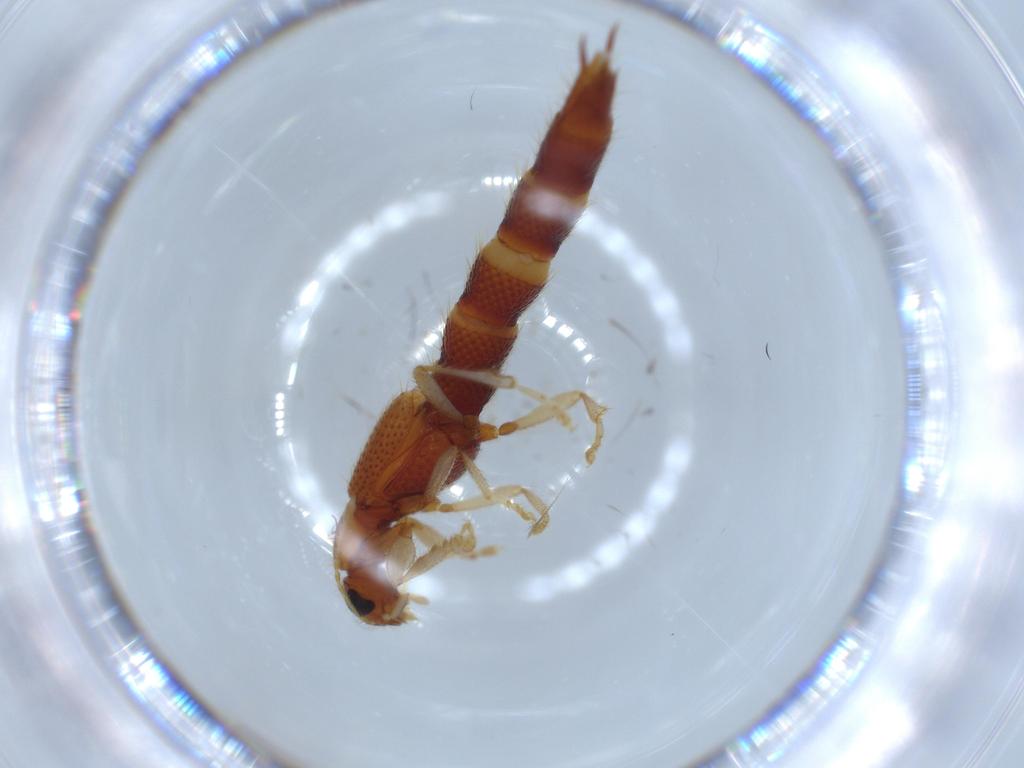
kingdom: Animalia
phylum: Arthropoda
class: Insecta
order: Coleoptera
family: Staphylinidae
